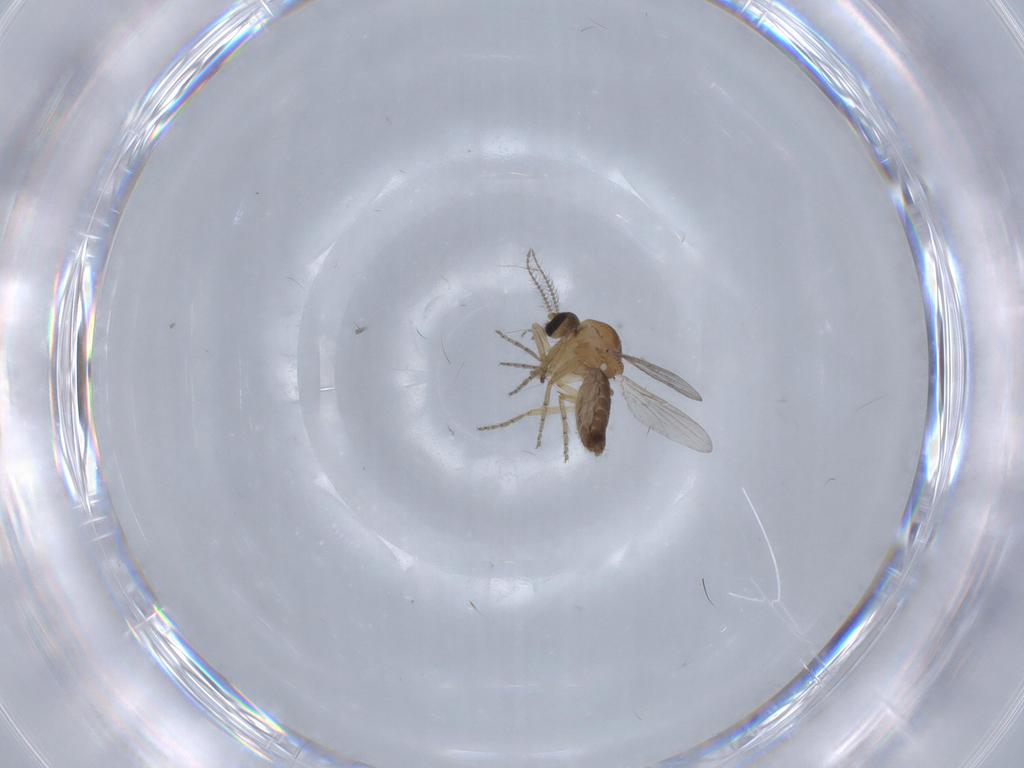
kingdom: Animalia
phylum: Arthropoda
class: Insecta
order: Diptera
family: Ceratopogonidae
